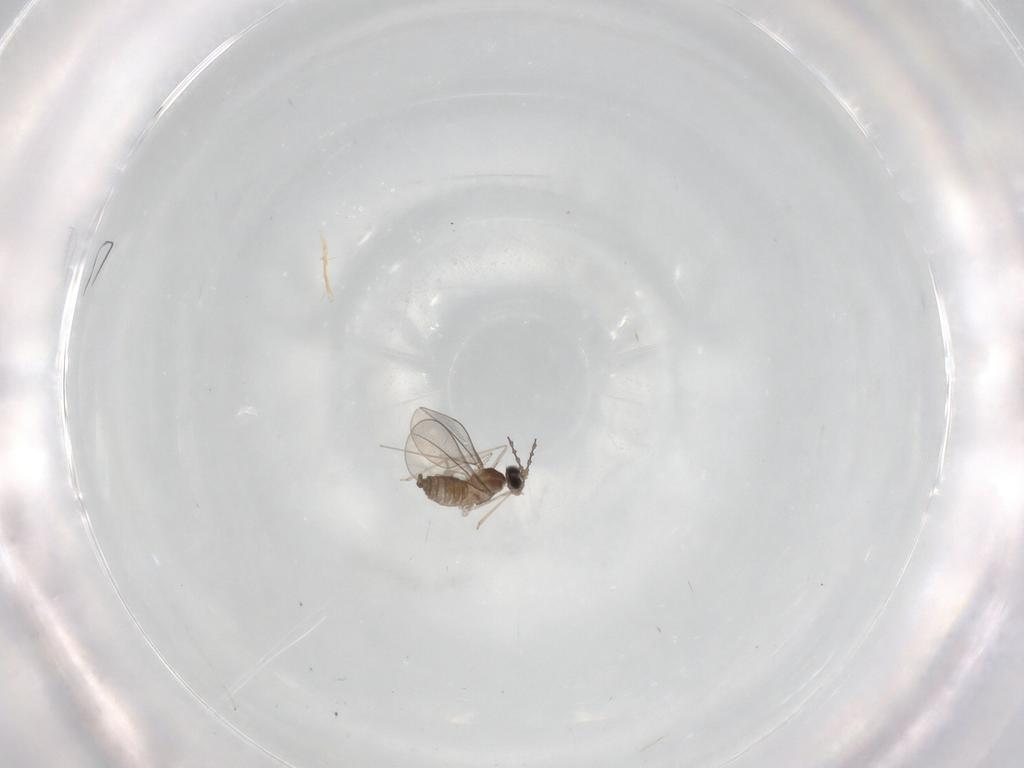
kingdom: Animalia
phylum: Arthropoda
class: Insecta
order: Diptera
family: Cecidomyiidae
